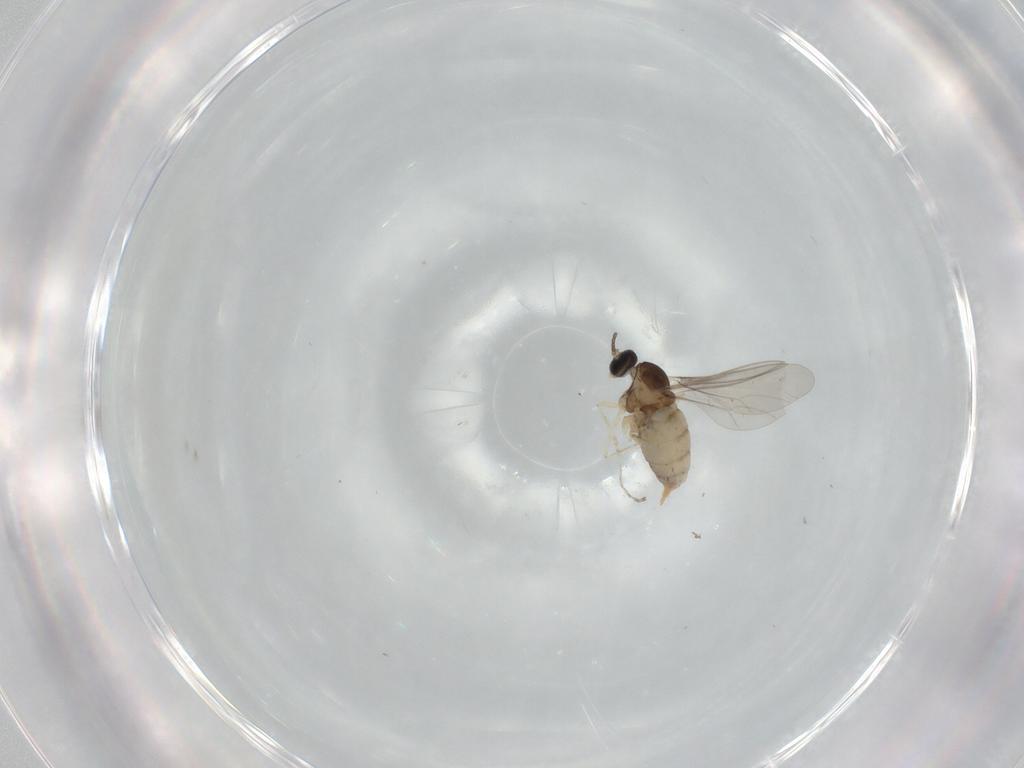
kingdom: Animalia
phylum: Arthropoda
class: Insecta
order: Diptera
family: Cecidomyiidae
